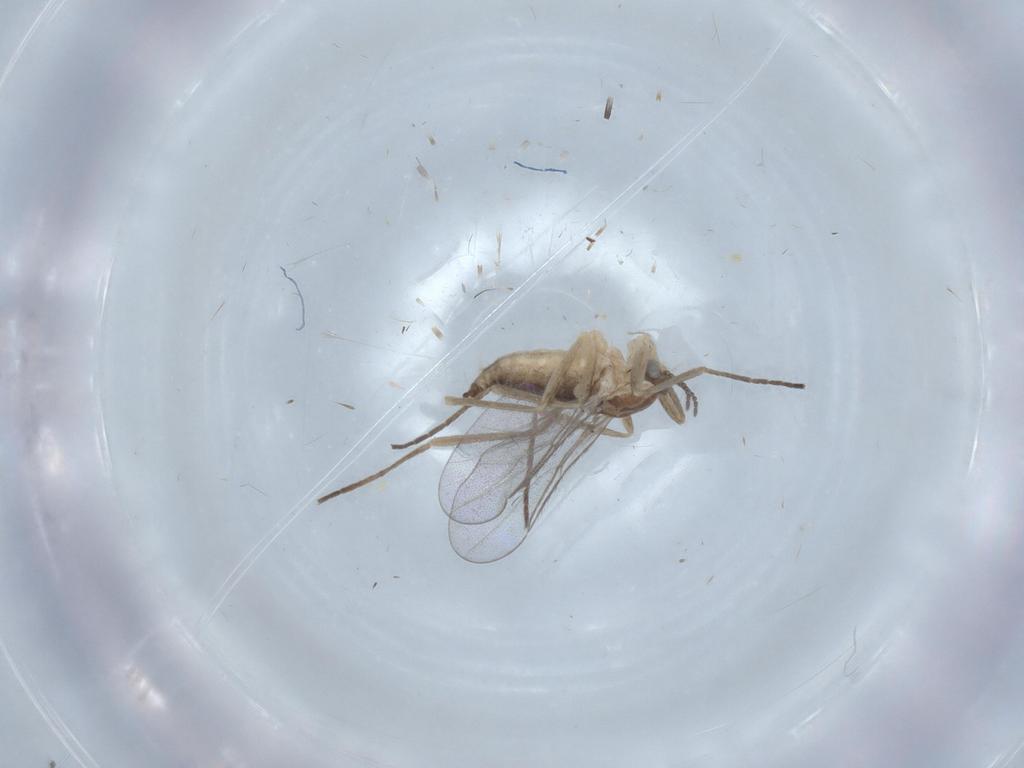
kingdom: Animalia
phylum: Arthropoda
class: Insecta
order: Diptera
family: Cecidomyiidae
